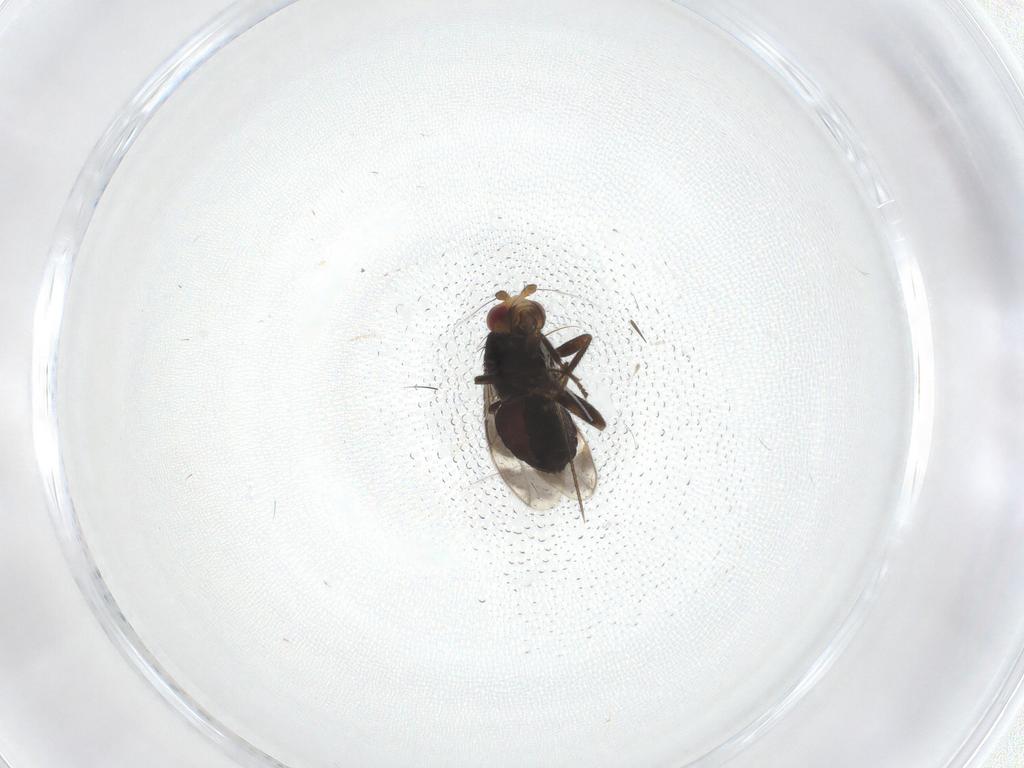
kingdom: Animalia
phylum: Arthropoda
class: Insecta
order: Diptera
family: Sphaeroceridae
